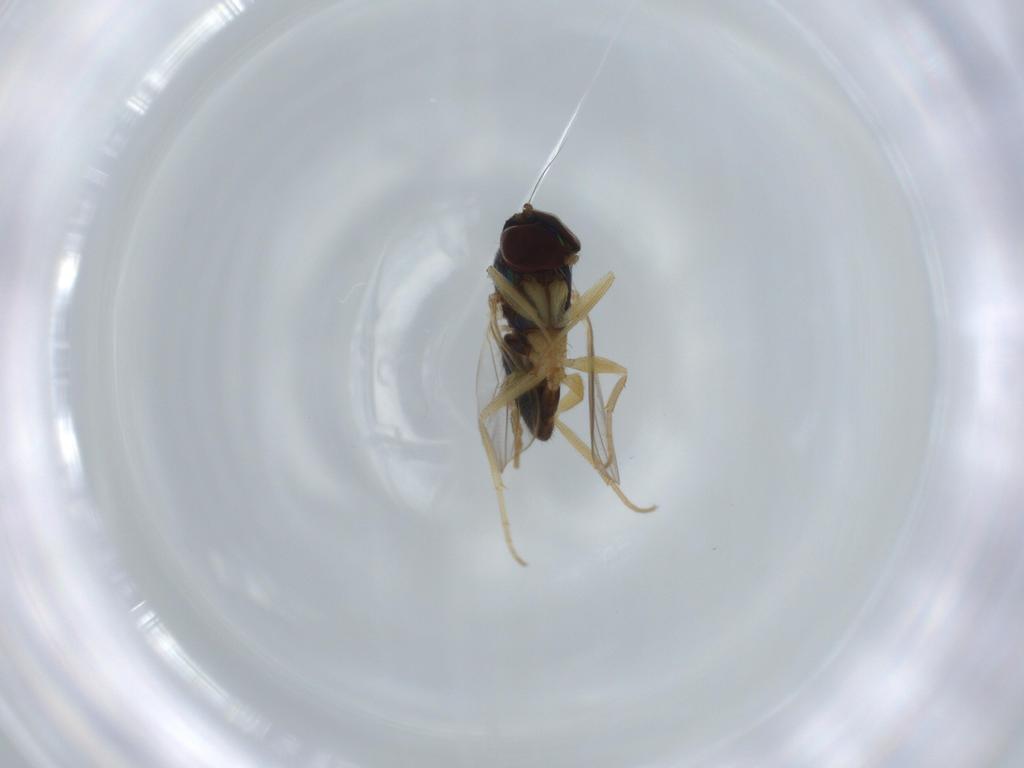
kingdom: Animalia
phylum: Arthropoda
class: Insecta
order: Diptera
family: Dolichopodidae
